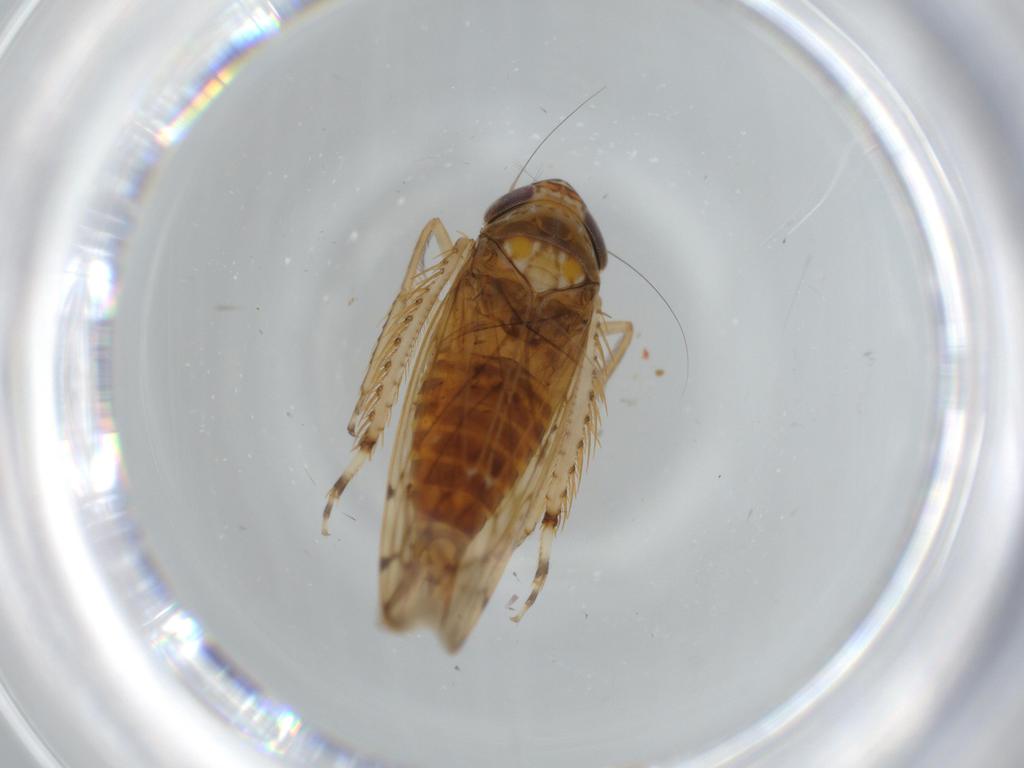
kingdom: Animalia
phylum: Arthropoda
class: Insecta
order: Hemiptera
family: Cicadellidae
